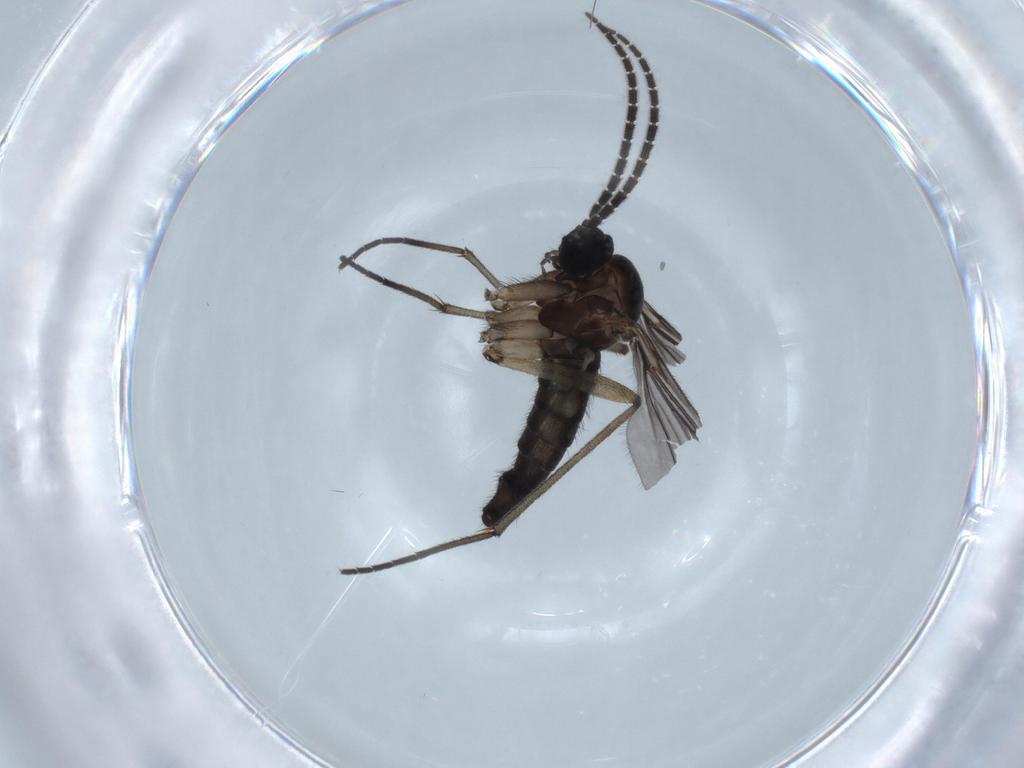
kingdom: Animalia
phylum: Arthropoda
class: Insecta
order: Diptera
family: Sciaridae
